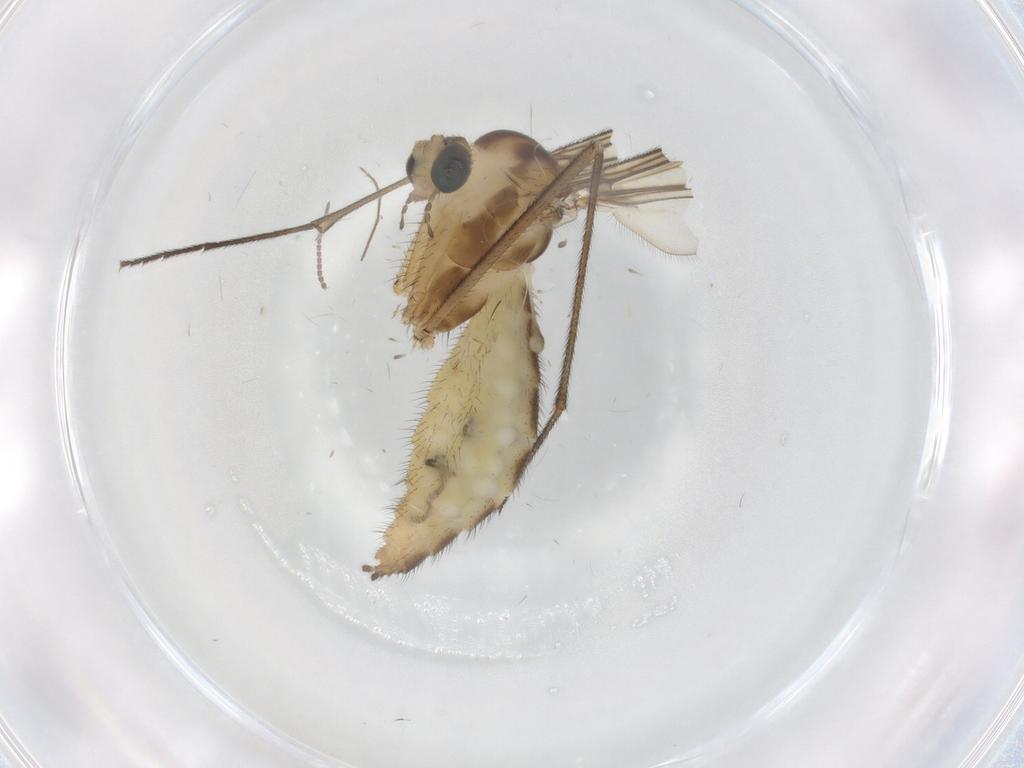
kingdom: Animalia
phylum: Arthropoda
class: Insecta
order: Diptera
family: Keroplatidae
